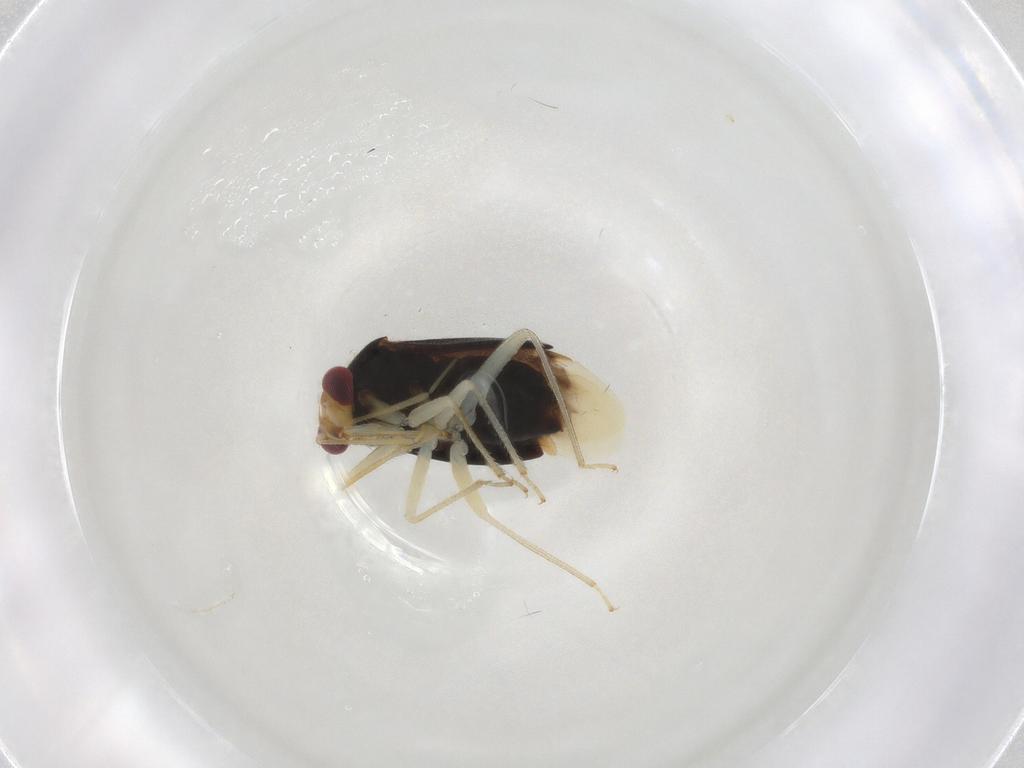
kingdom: Animalia
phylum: Arthropoda
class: Insecta
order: Hemiptera
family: Miridae
